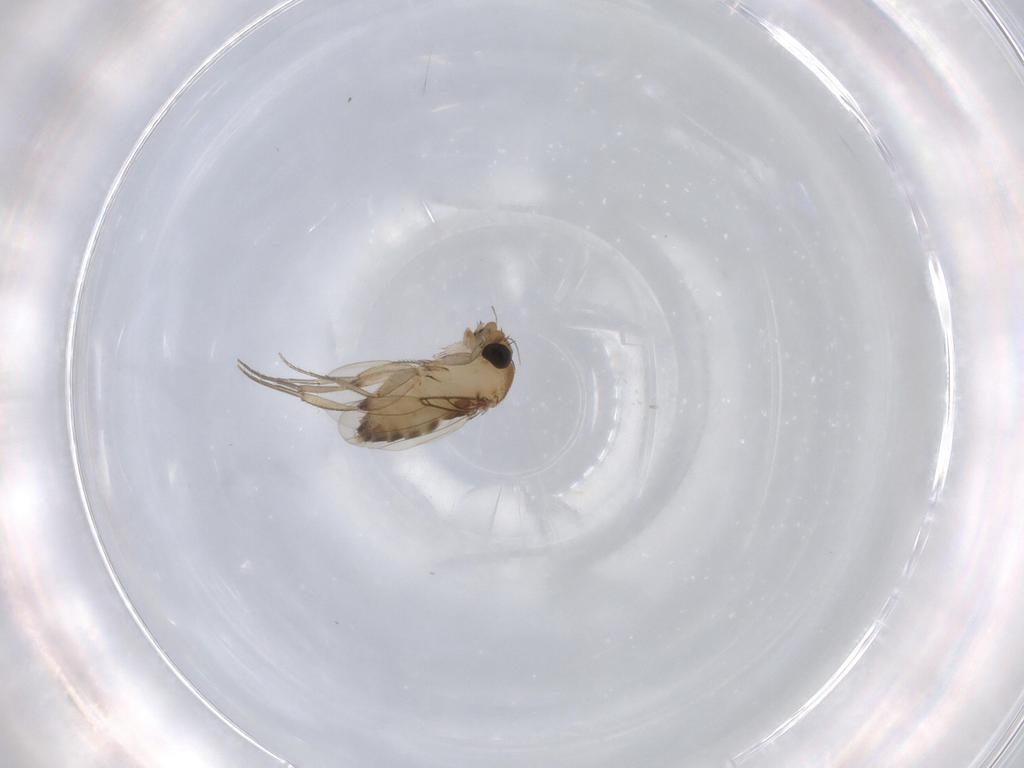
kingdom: Animalia
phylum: Arthropoda
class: Insecta
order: Diptera
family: Phoridae
